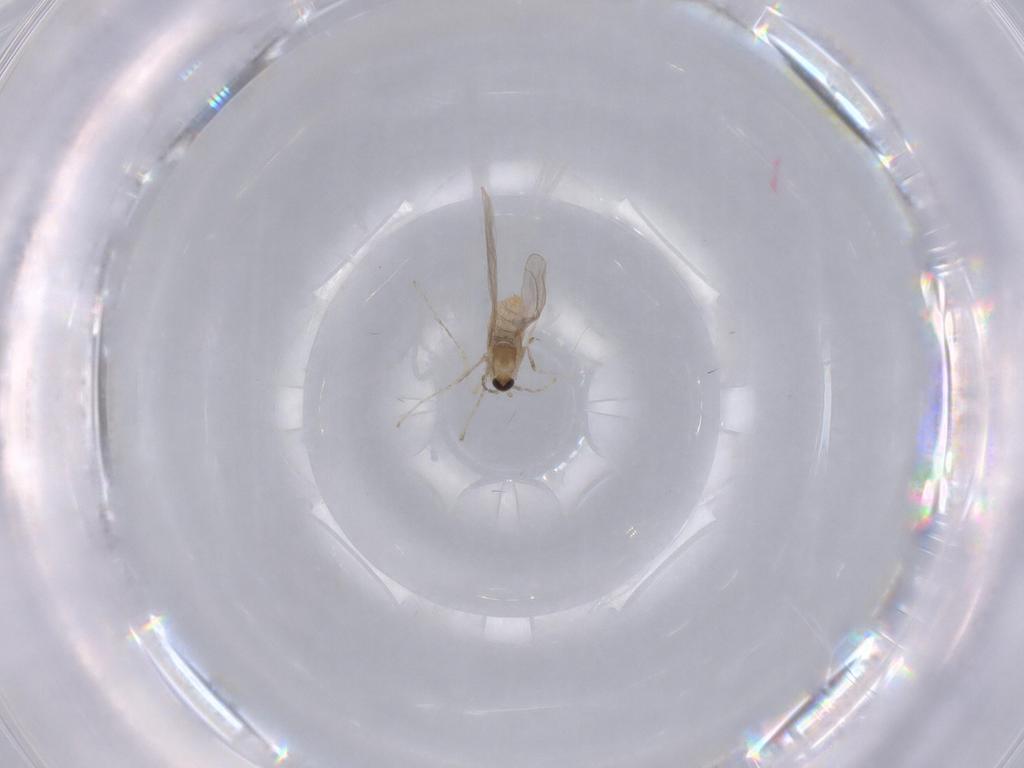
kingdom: Animalia
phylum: Arthropoda
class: Insecta
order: Diptera
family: Cecidomyiidae
